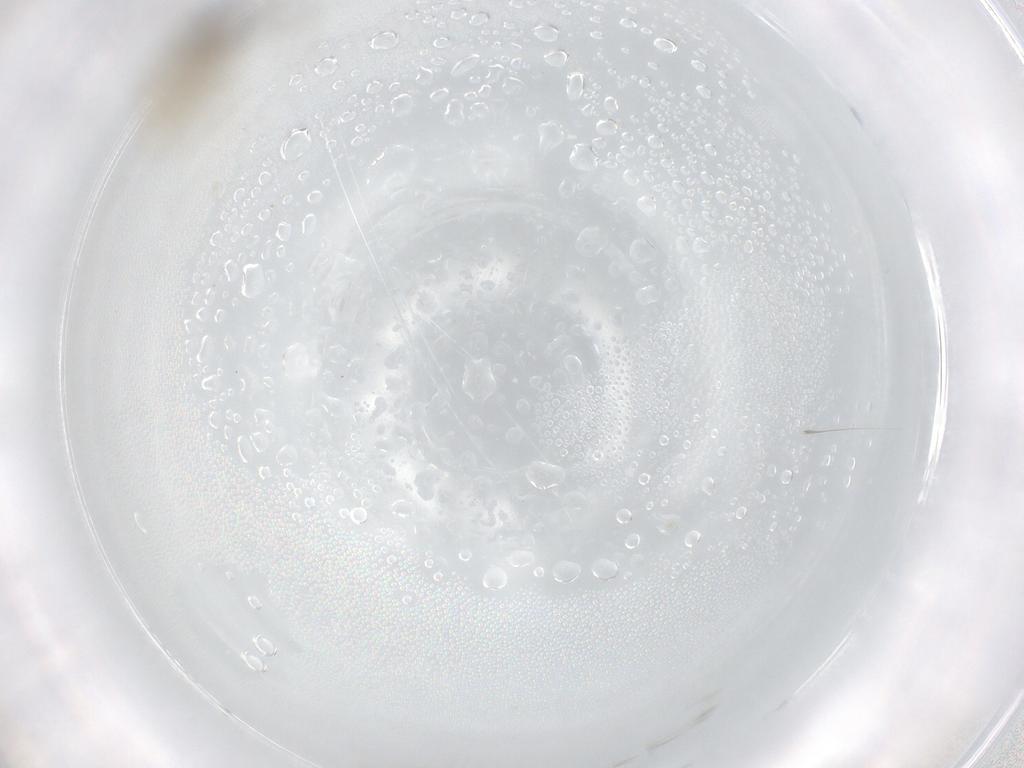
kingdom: Animalia
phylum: Arthropoda
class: Insecta
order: Diptera
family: Cecidomyiidae
